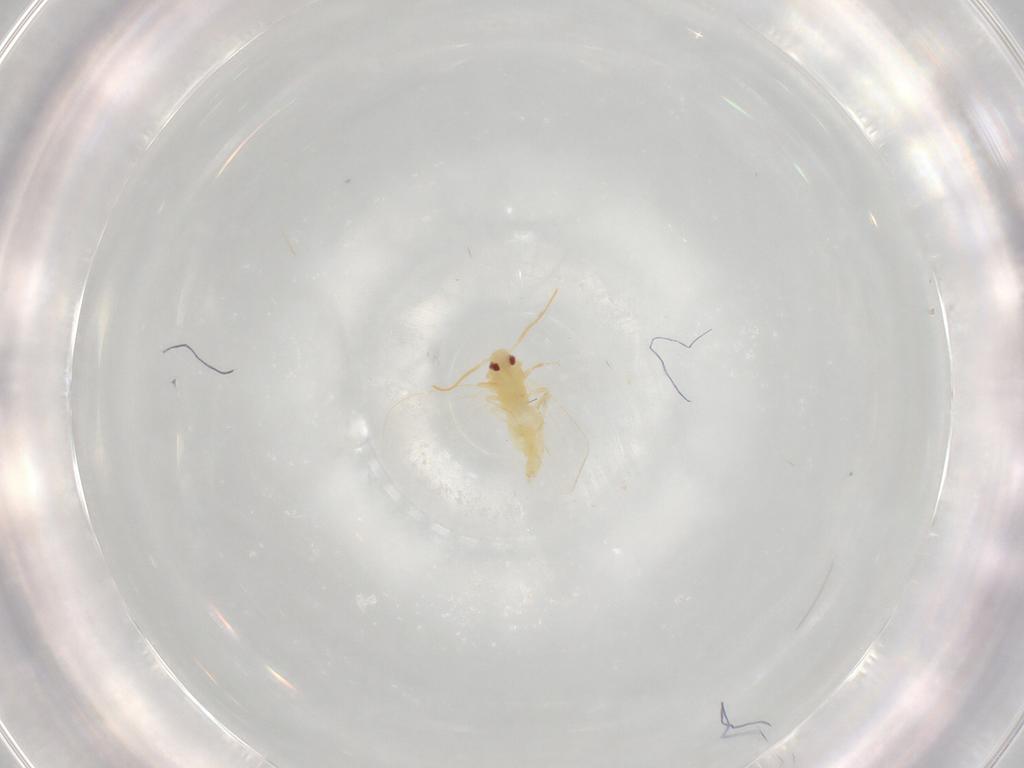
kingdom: Animalia
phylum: Arthropoda
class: Insecta
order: Hemiptera
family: Aleyrodidae
